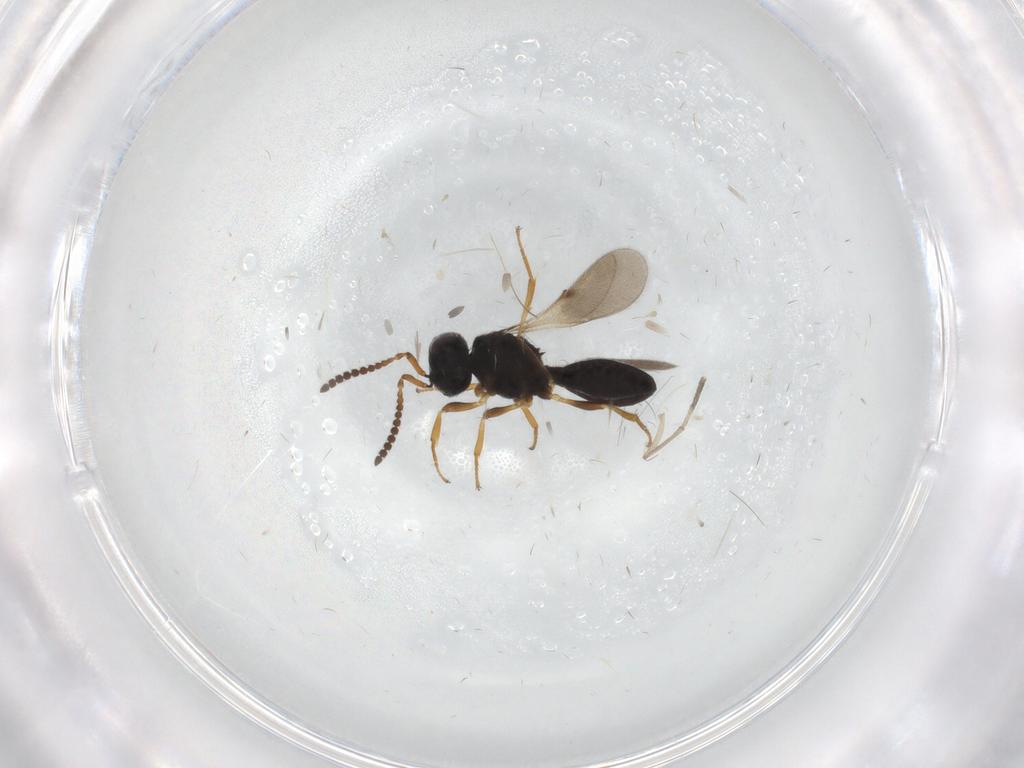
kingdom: Animalia
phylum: Arthropoda
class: Insecta
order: Hymenoptera
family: Scelionidae
